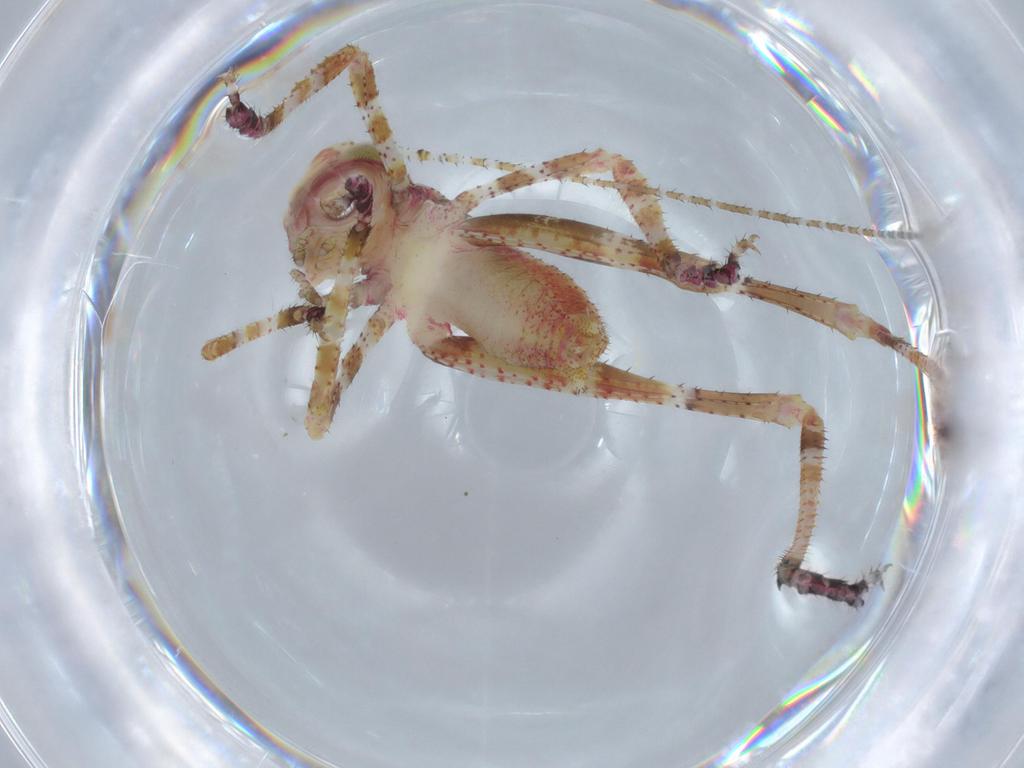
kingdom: Animalia
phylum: Arthropoda
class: Insecta
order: Orthoptera
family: Tettigoniidae
